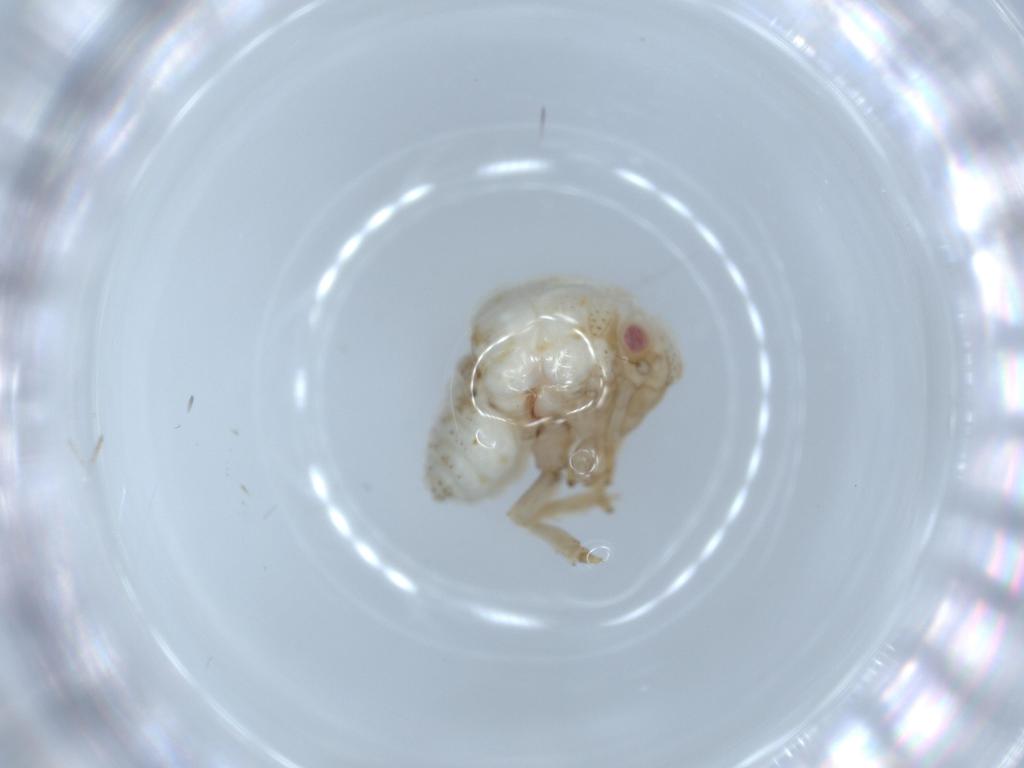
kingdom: Animalia
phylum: Arthropoda
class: Insecta
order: Hemiptera
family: Acanaloniidae
